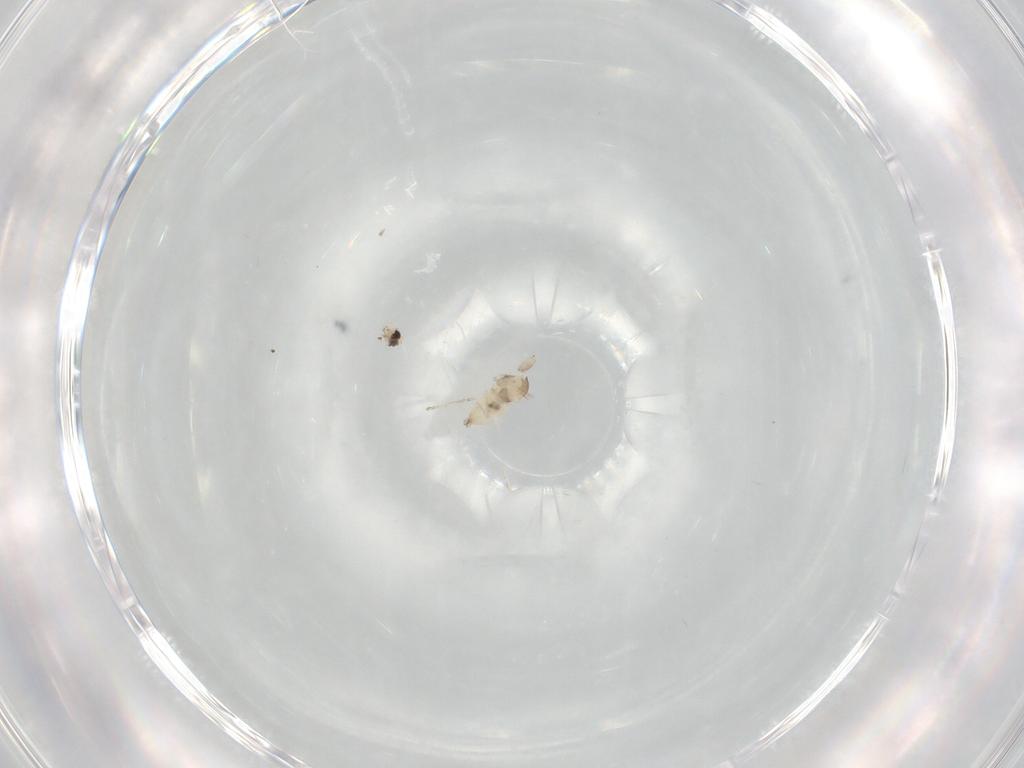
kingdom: Animalia
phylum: Arthropoda
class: Insecta
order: Diptera
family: Cecidomyiidae
